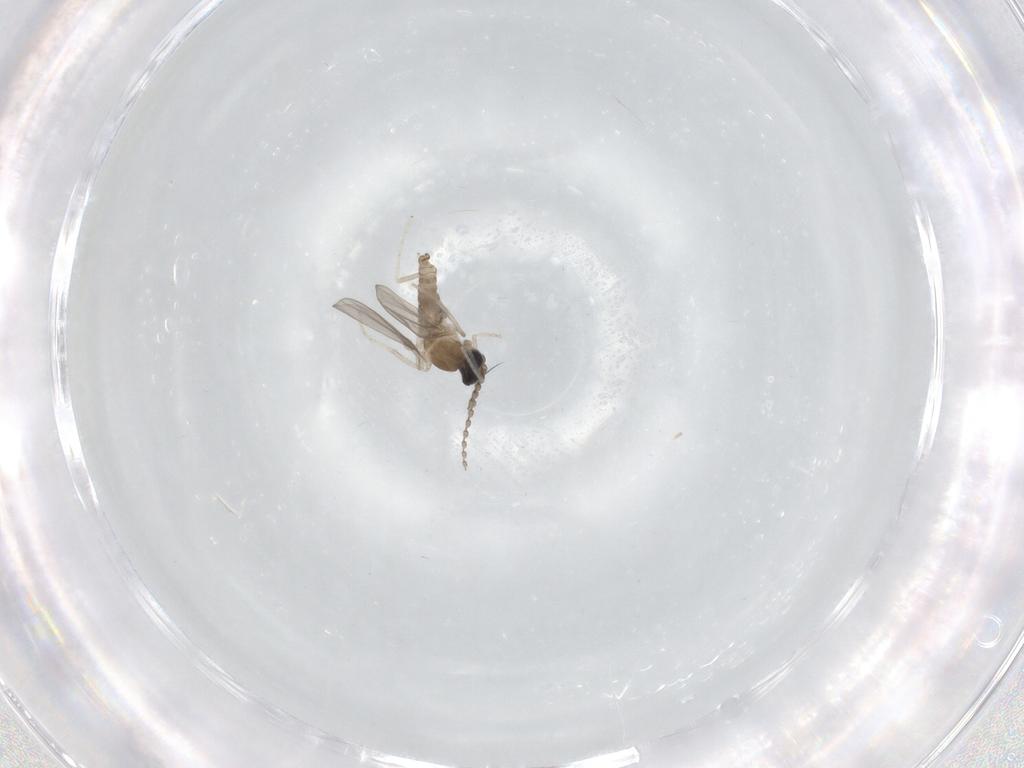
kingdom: Animalia
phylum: Arthropoda
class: Insecta
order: Diptera
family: Cecidomyiidae
